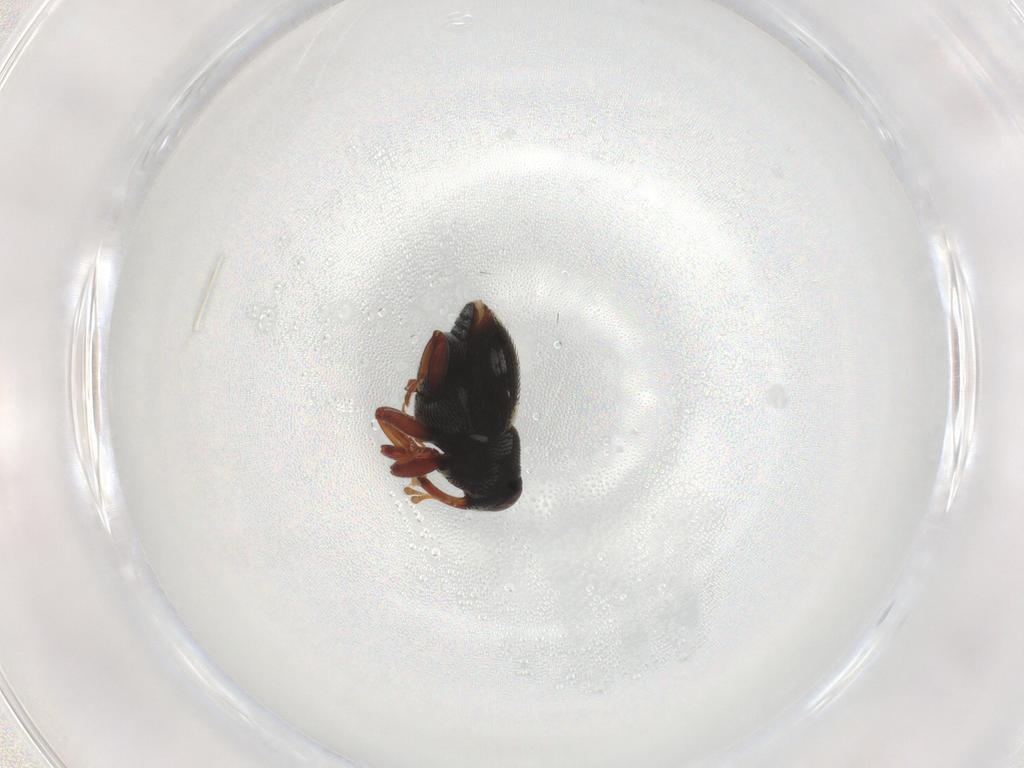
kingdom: Animalia
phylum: Arthropoda
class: Insecta
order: Coleoptera
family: Curculionidae
